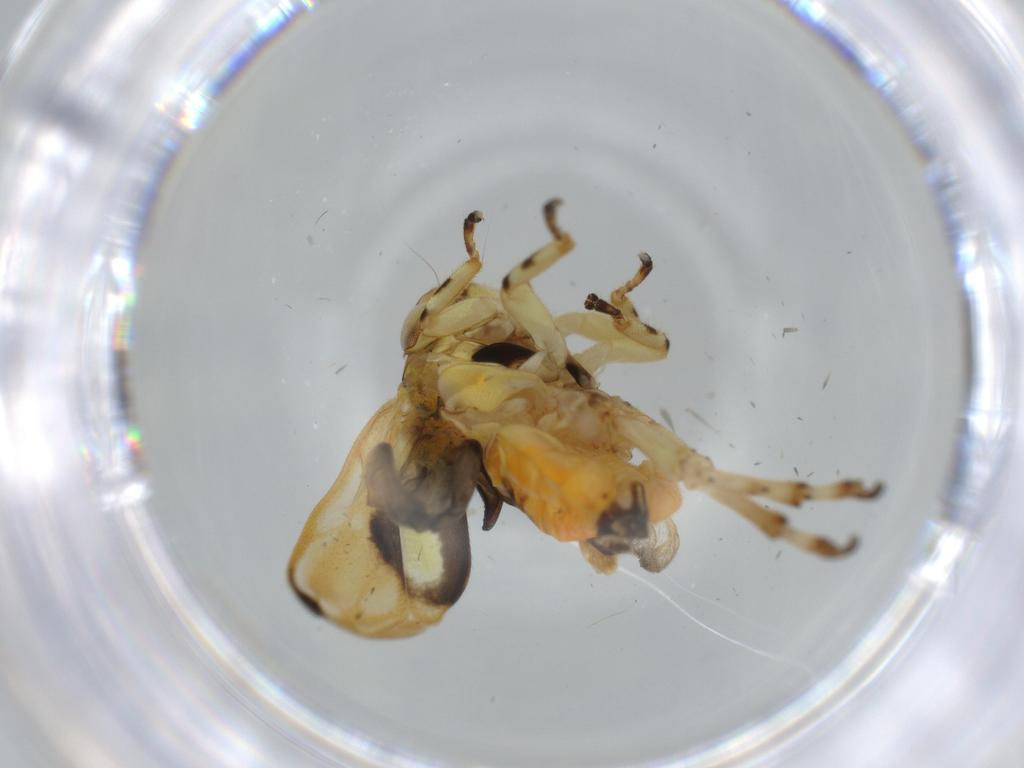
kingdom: Animalia
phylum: Arthropoda
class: Insecta
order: Hemiptera
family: Clastopteridae
